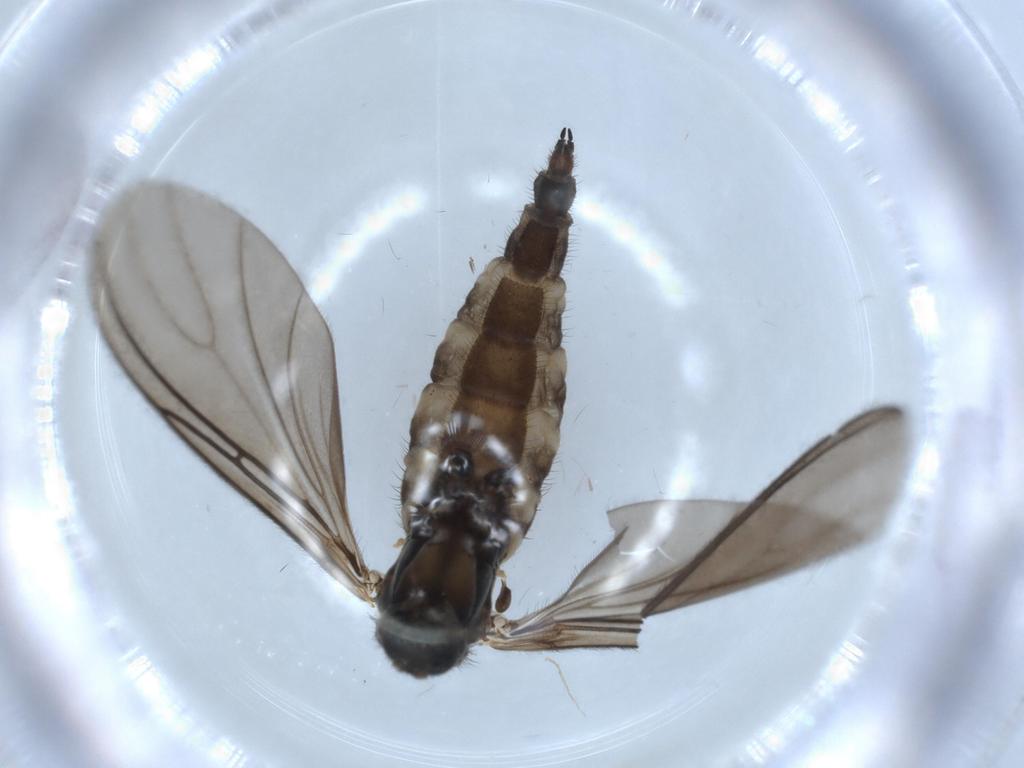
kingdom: Animalia
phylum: Arthropoda
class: Insecta
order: Diptera
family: Sciaridae
